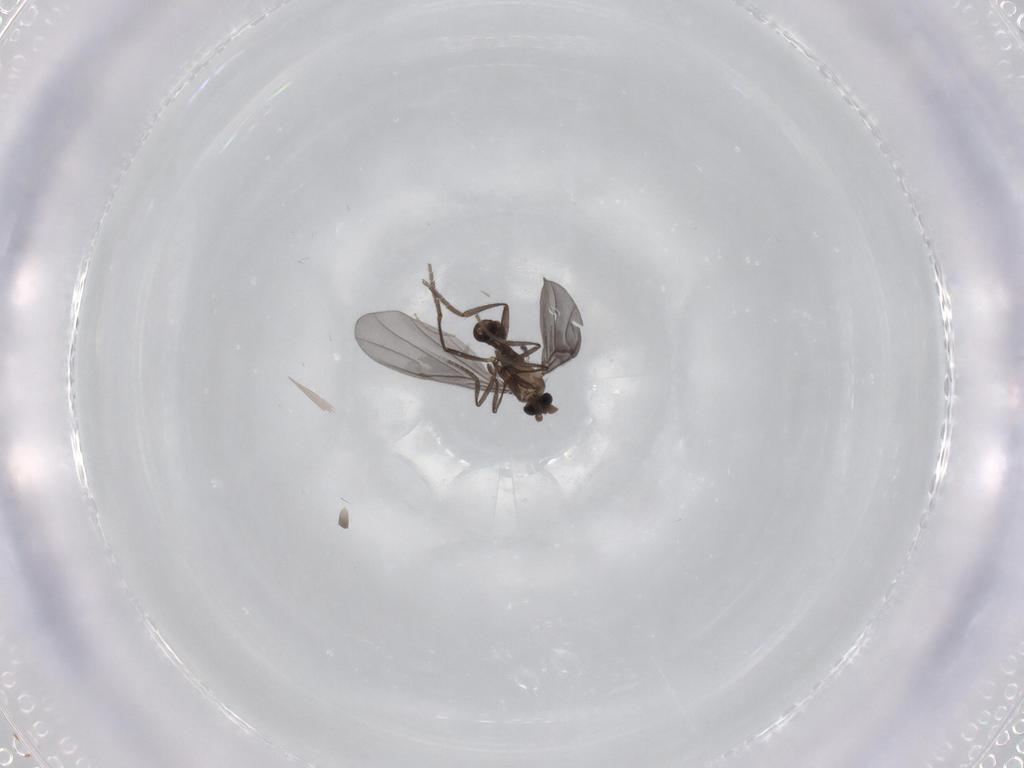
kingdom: Animalia
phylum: Arthropoda
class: Insecta
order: Diptera
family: Phoridae
